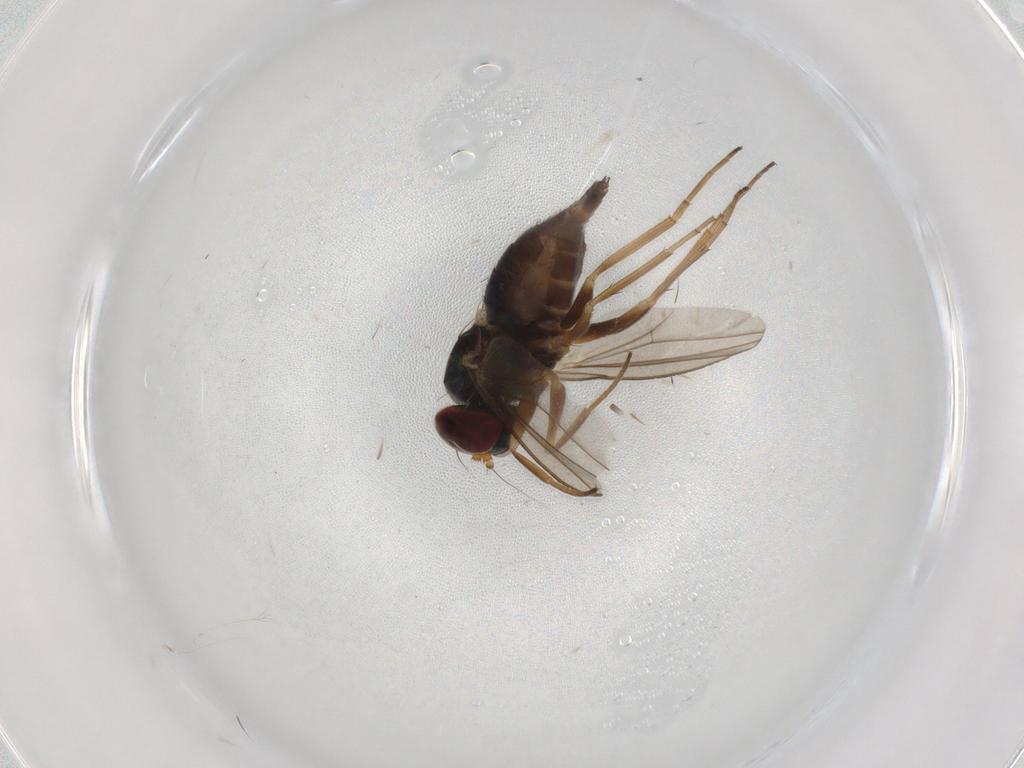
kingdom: Animalia
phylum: Arthropoda
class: Insecta
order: Diptera
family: Dolichopodidae
